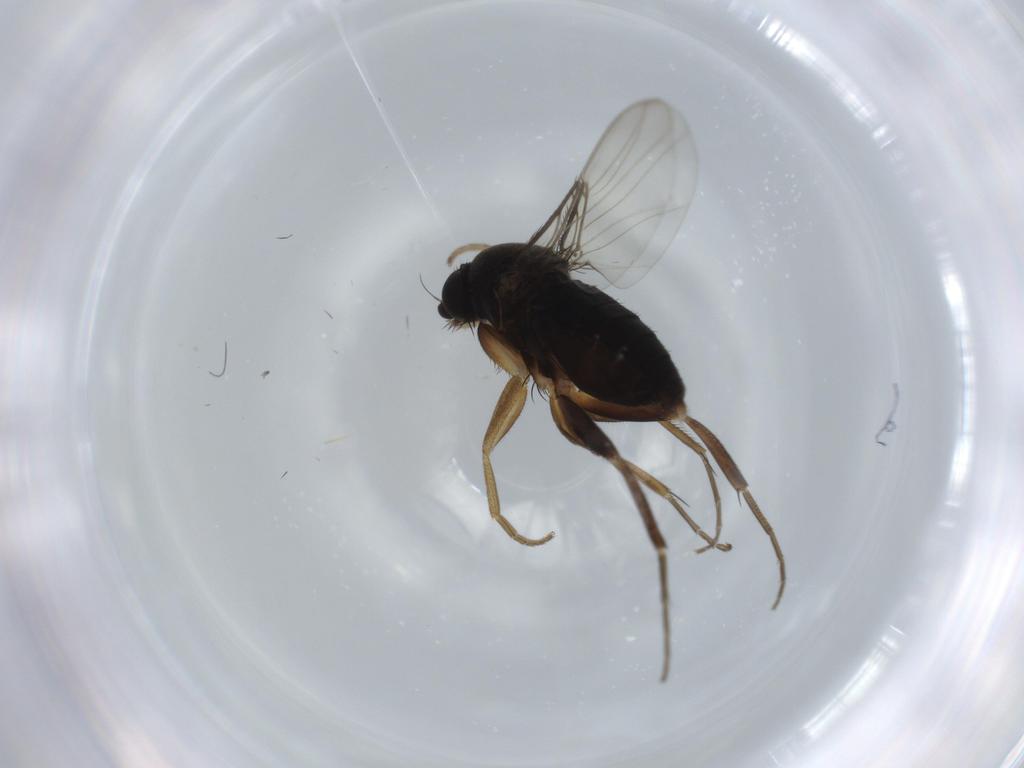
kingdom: Animalia
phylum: Arthropoda
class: Insecta
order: Diptera
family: Phoridae
